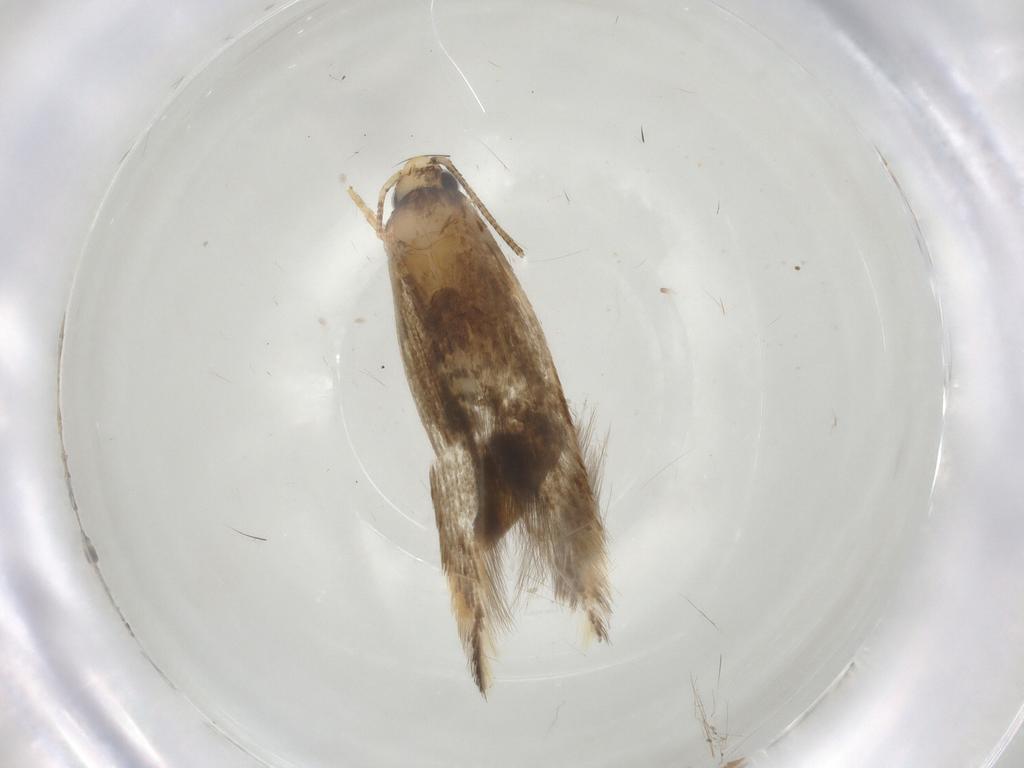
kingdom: Animalia
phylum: Arthropoda
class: Insecta
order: Lepidoptera
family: Tineidae
